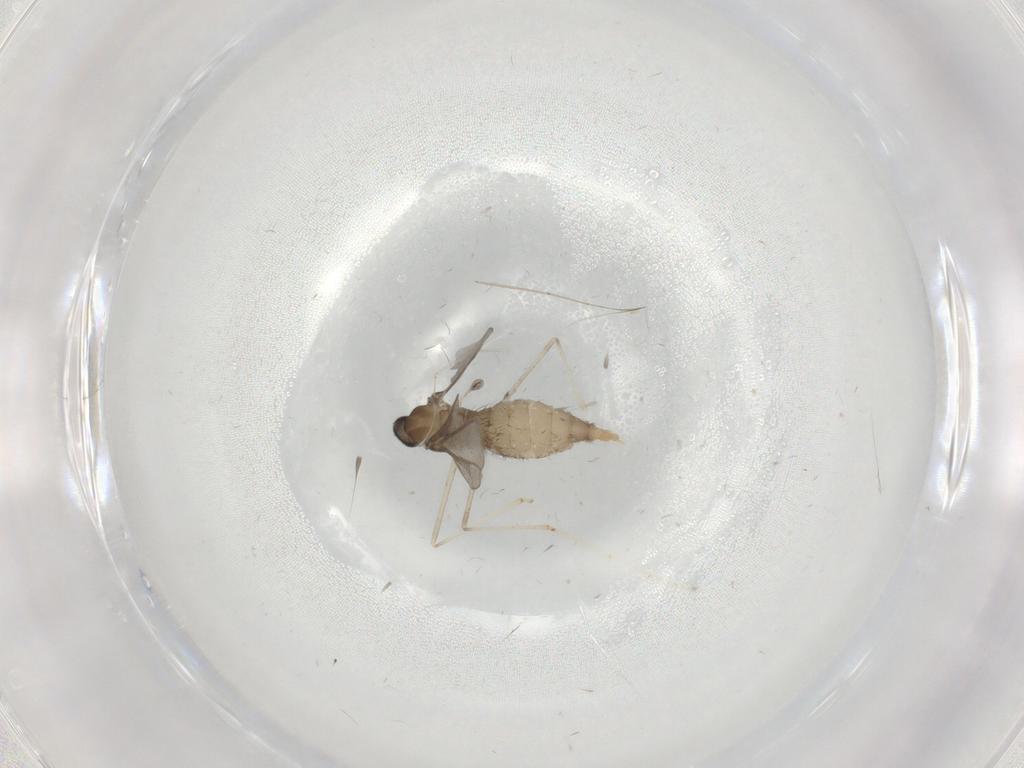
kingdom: Animalia
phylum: Arthropoda
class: Insecta
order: Diptera
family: Cecidomyiidae
